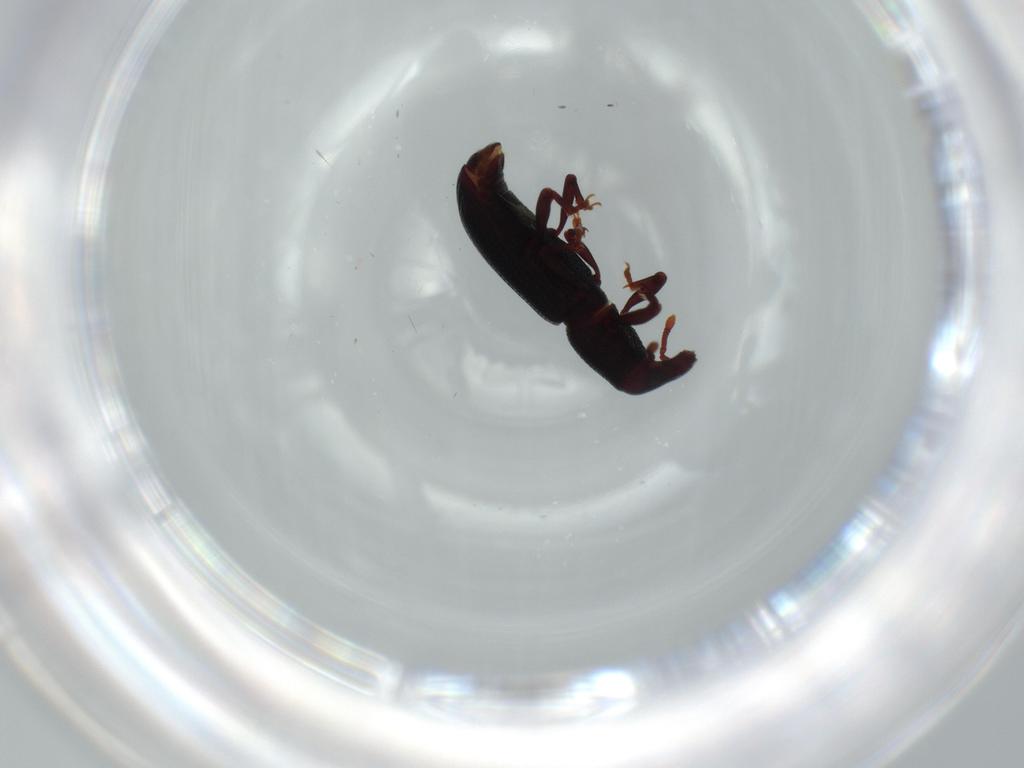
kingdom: Animalia
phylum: Arthropoda
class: Insecta
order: Coleoptera
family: Curculionidae
